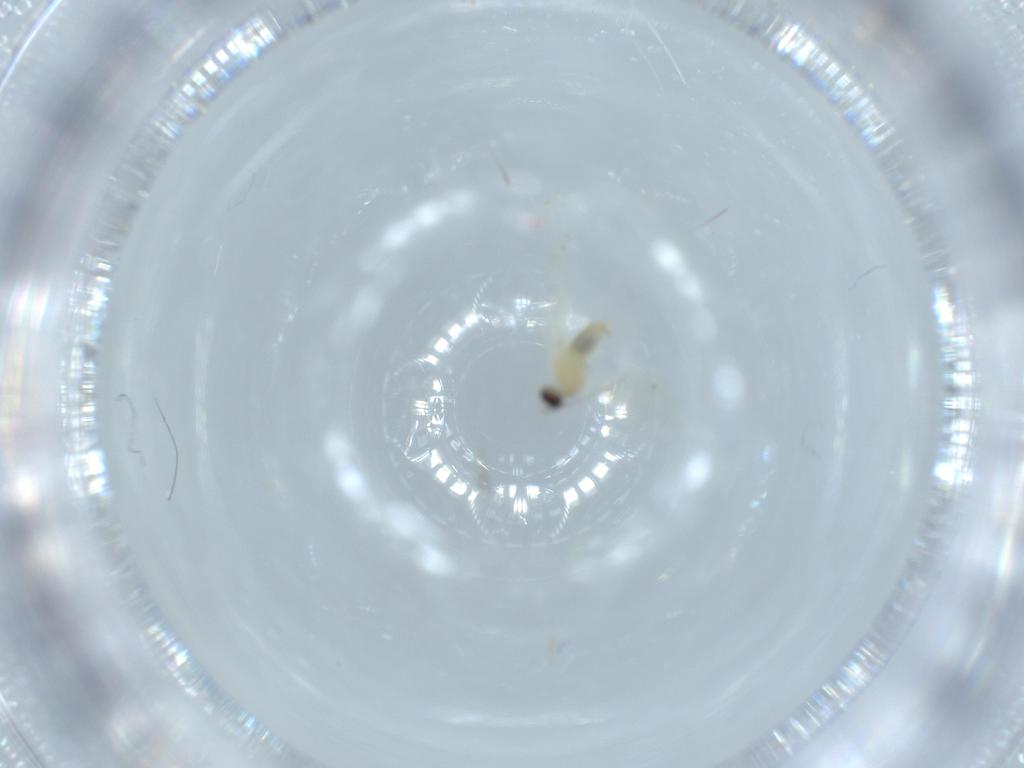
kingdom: Animalia
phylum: Arthropoda
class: Insecta
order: Diptera
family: Cecidomyiidae
